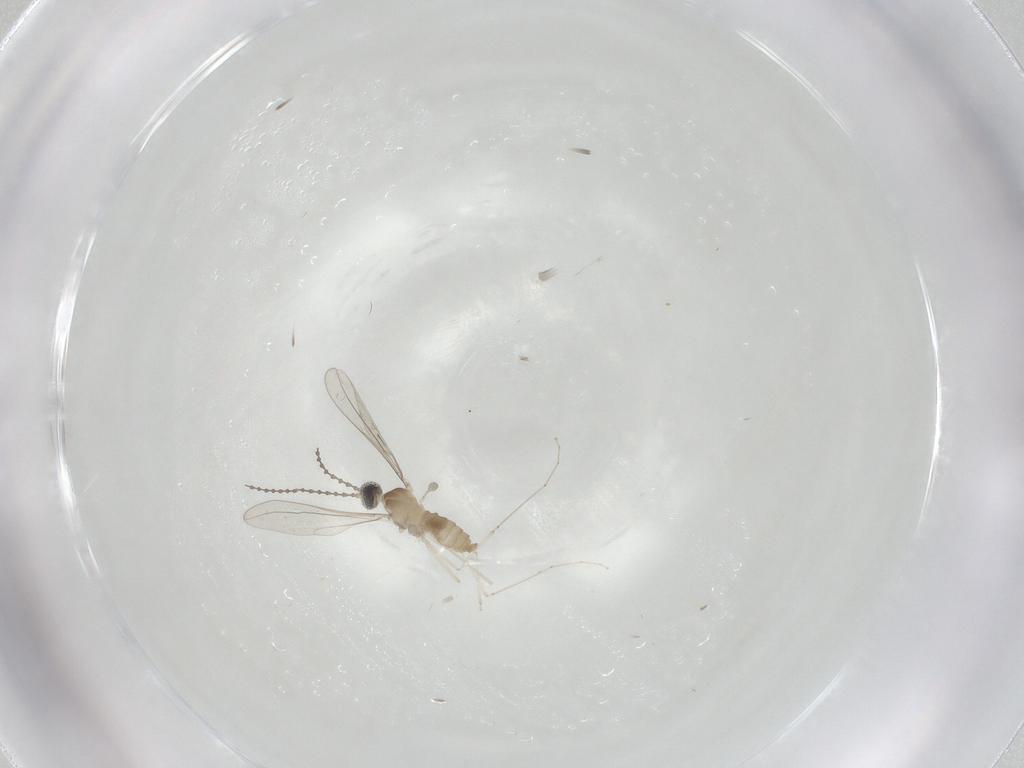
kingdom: Animalia
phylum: Arthropoda
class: Insecta
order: Diptera
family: Cecidomyiidae
